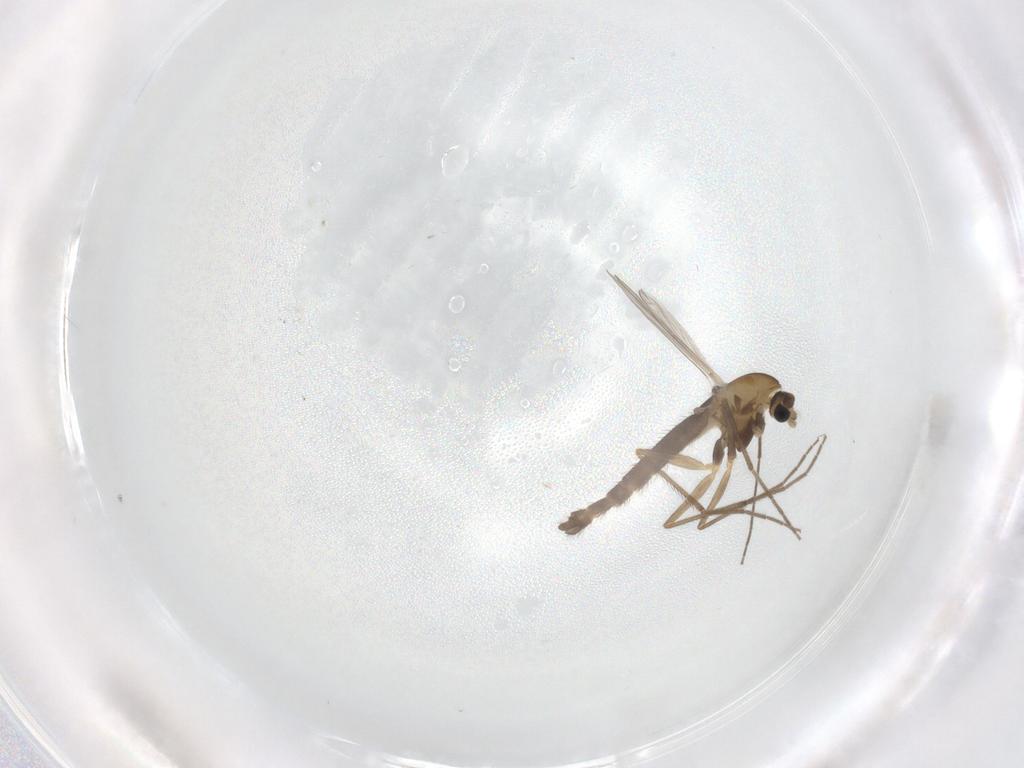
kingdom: Animalia
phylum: Arthropoda
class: Insecta
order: Diptera
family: Chironomidae
